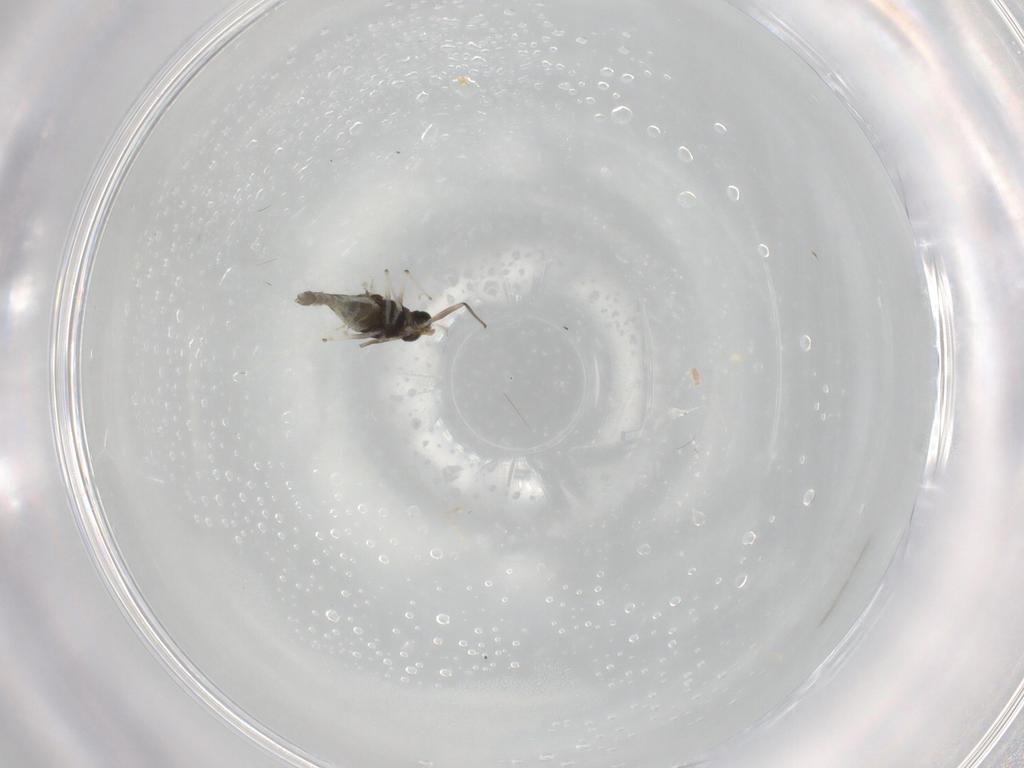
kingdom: Animalia
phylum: Arthropoda
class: Insecta
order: Diptera
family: Chironomidae
